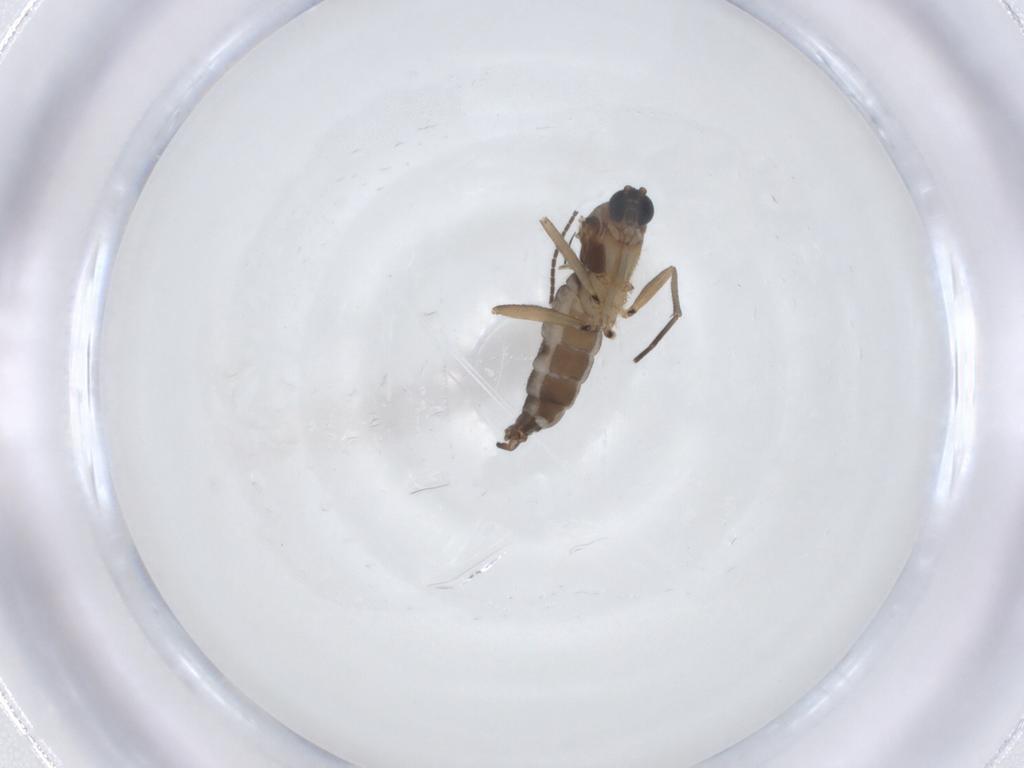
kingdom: Animalia
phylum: Arthropoda
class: Insecta
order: Diptera
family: Sciaridae
